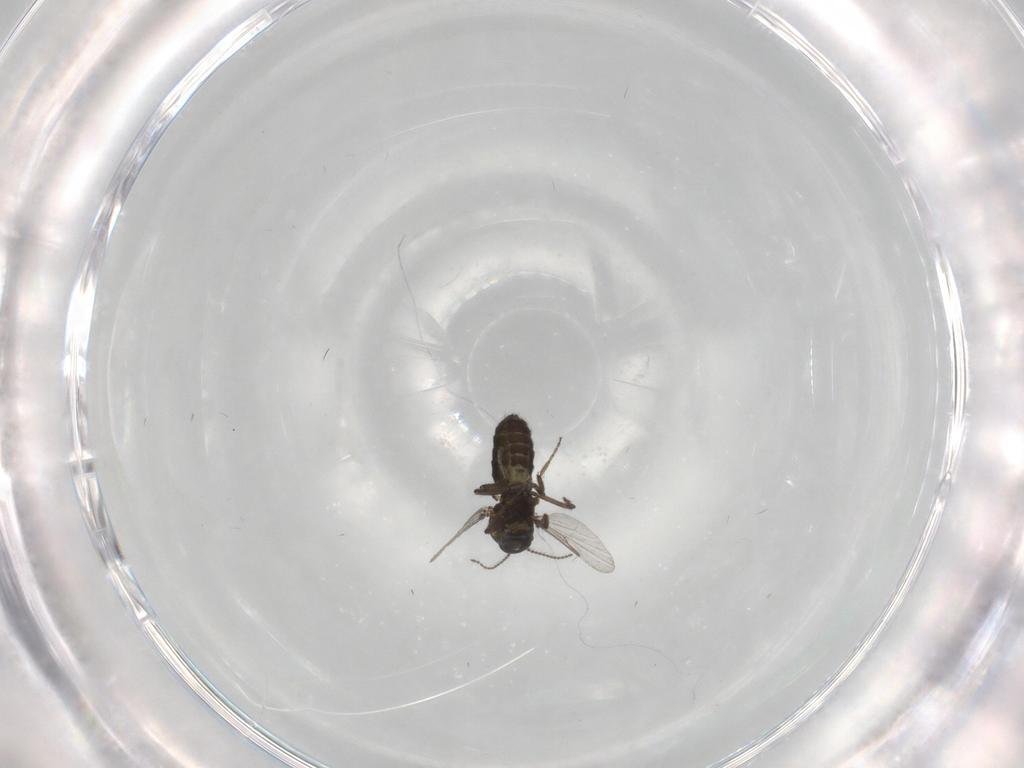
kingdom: Animalia
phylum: Arthropoda
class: Insecta
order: Diptera
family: Ceratopogonidae
